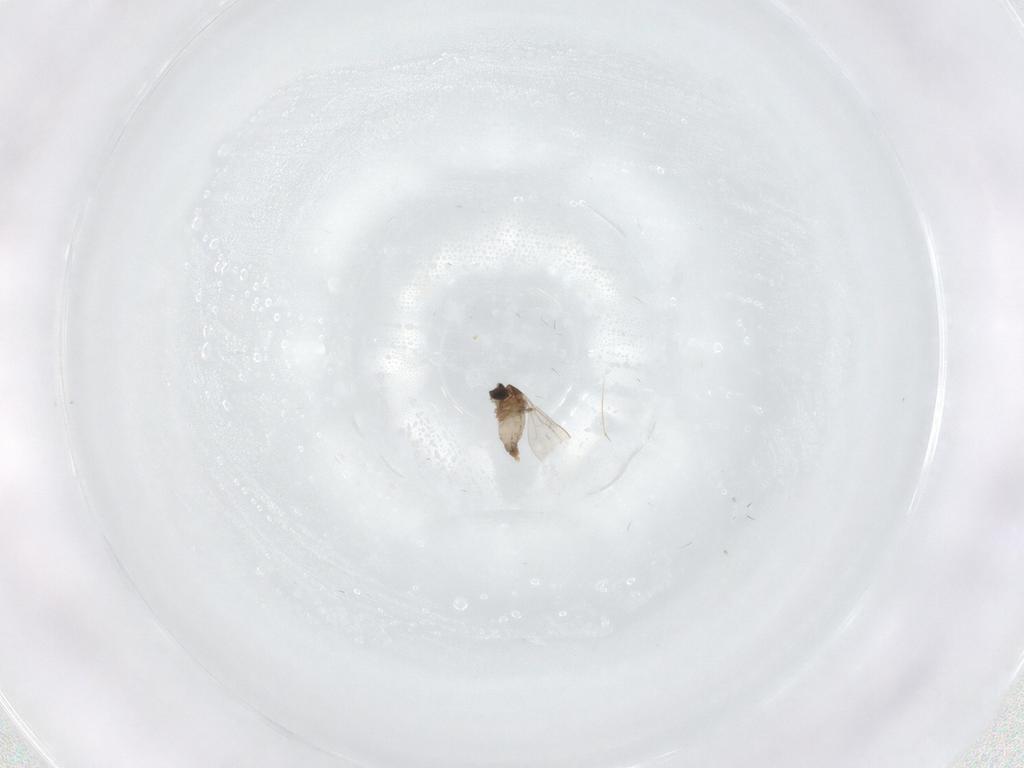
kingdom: Animalia
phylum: Arthropoda
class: Insecta
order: Diptera
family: Cecidomyiidae
